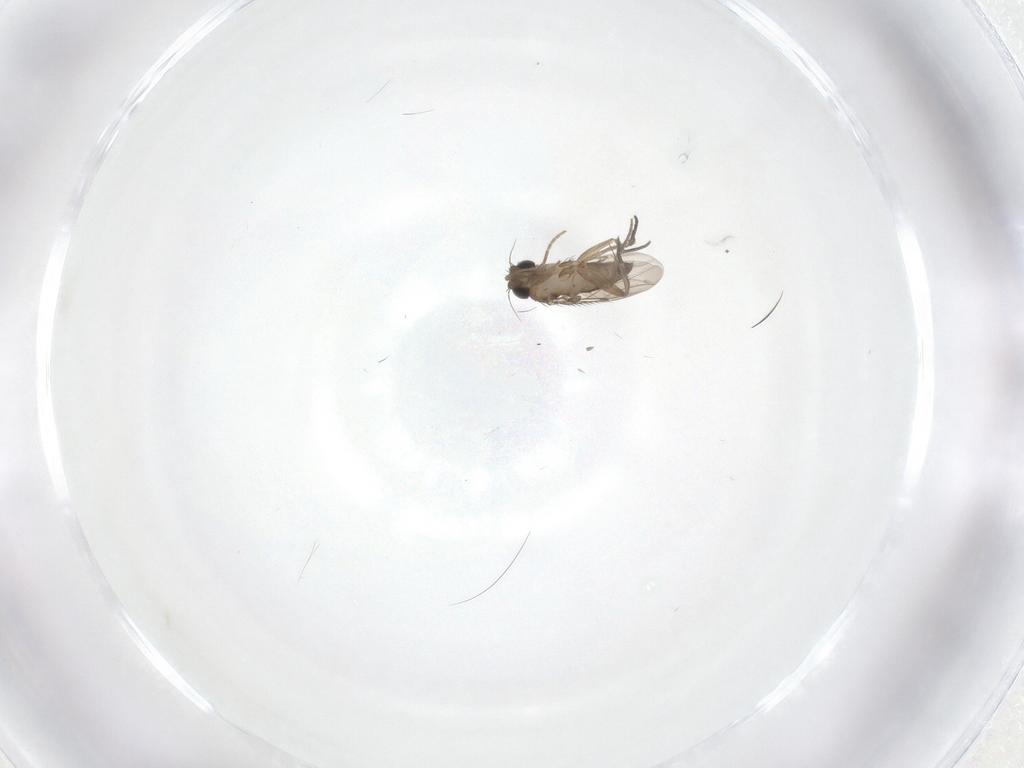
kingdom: Animalia
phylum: Arthropoda
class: Insecta
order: Diptera
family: Phoridae
